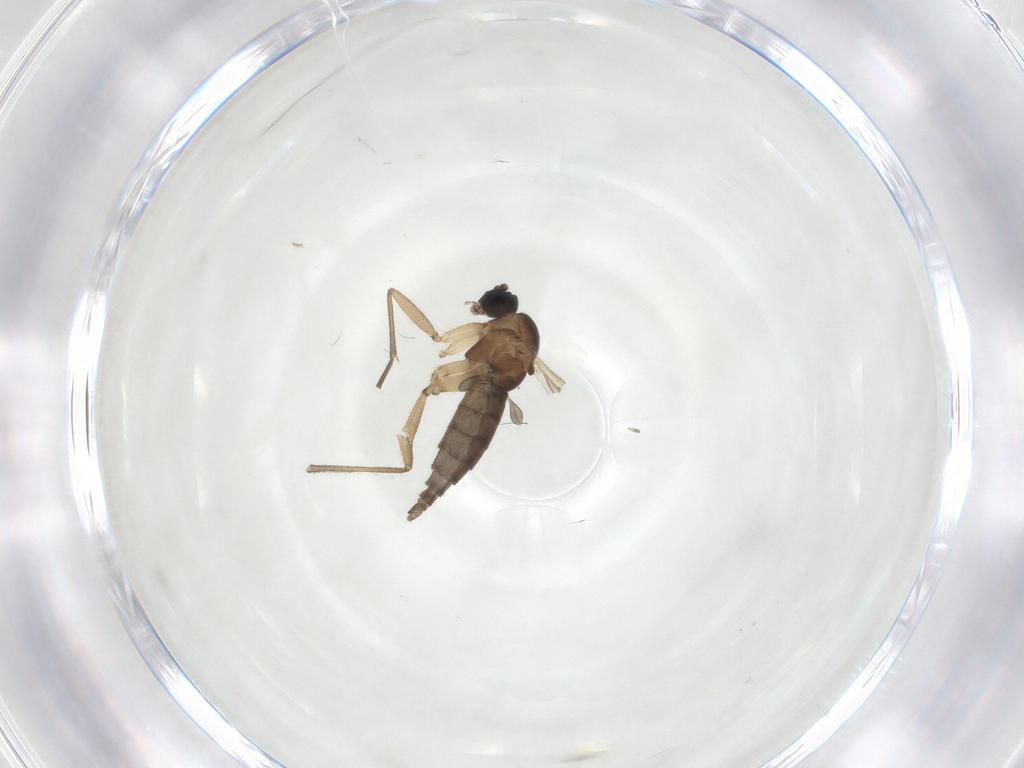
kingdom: Animalia
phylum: Arthropoda
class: Insecta
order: Diptera
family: Sciaridae
